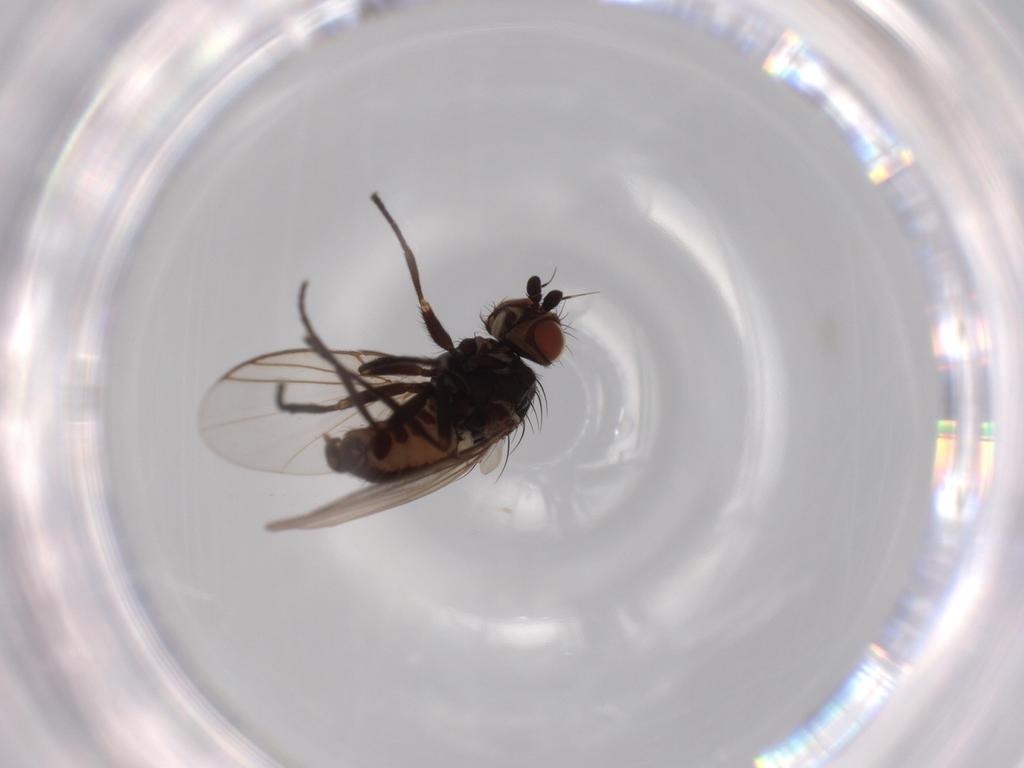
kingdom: Animalia
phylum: Arthropoda
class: Insecta
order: Diptera
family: Agromyzidae
